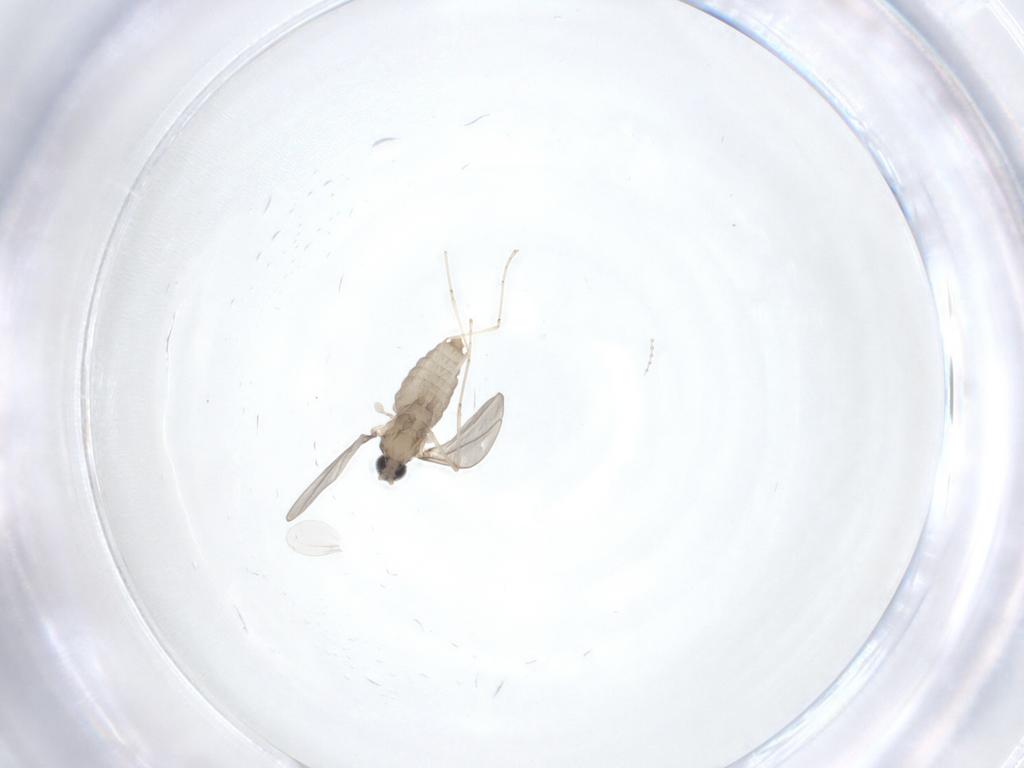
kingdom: Animalia
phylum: Arthropoda
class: Insecta
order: Diptera
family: Cecidomyiidae
